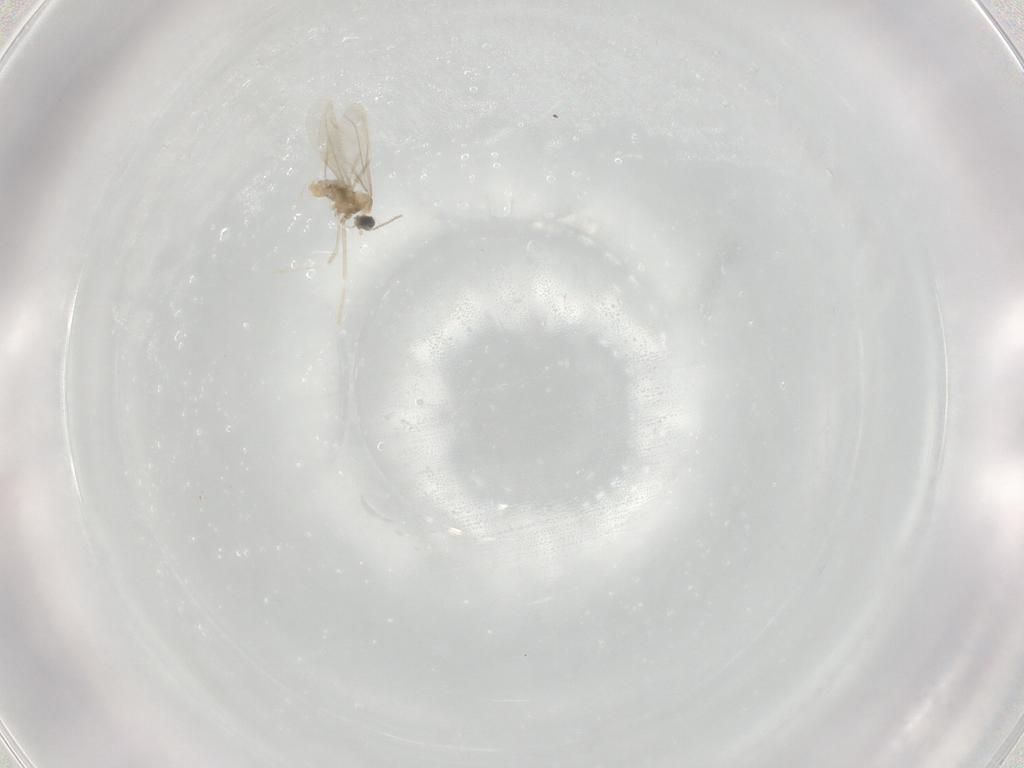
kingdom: Animalia
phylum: Arthropoda
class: Insecta
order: Diptera
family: Cecidomyiidae
